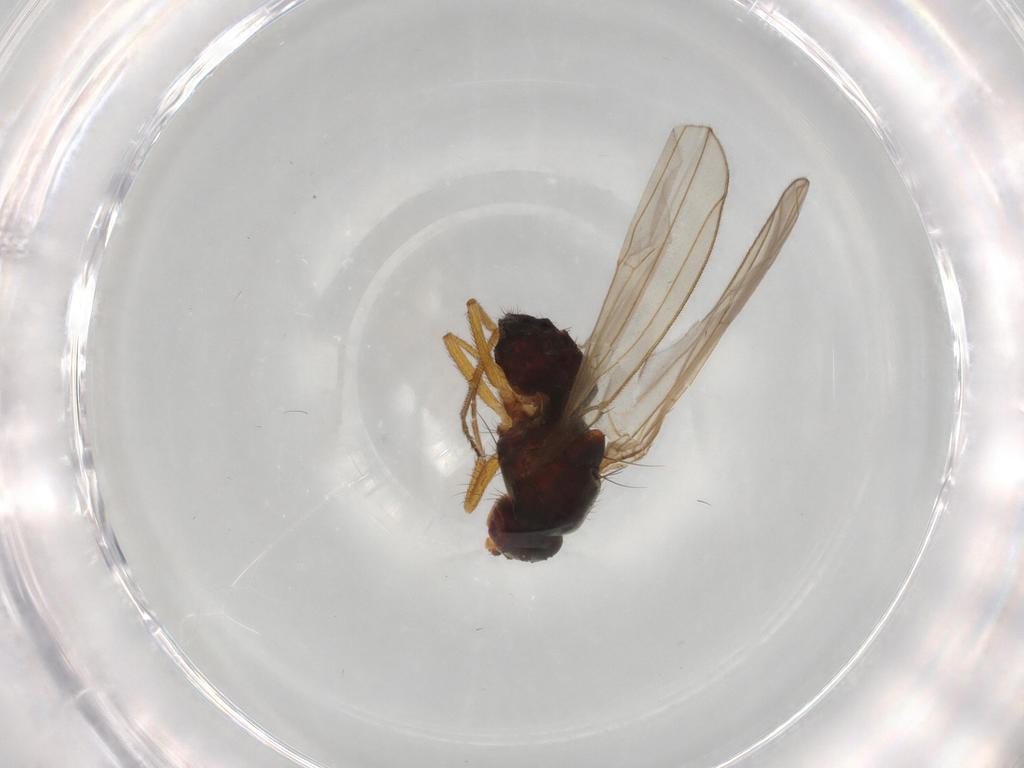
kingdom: Animalia
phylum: Arthropoda
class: Insecta
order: Diptera
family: Drosophilidae
